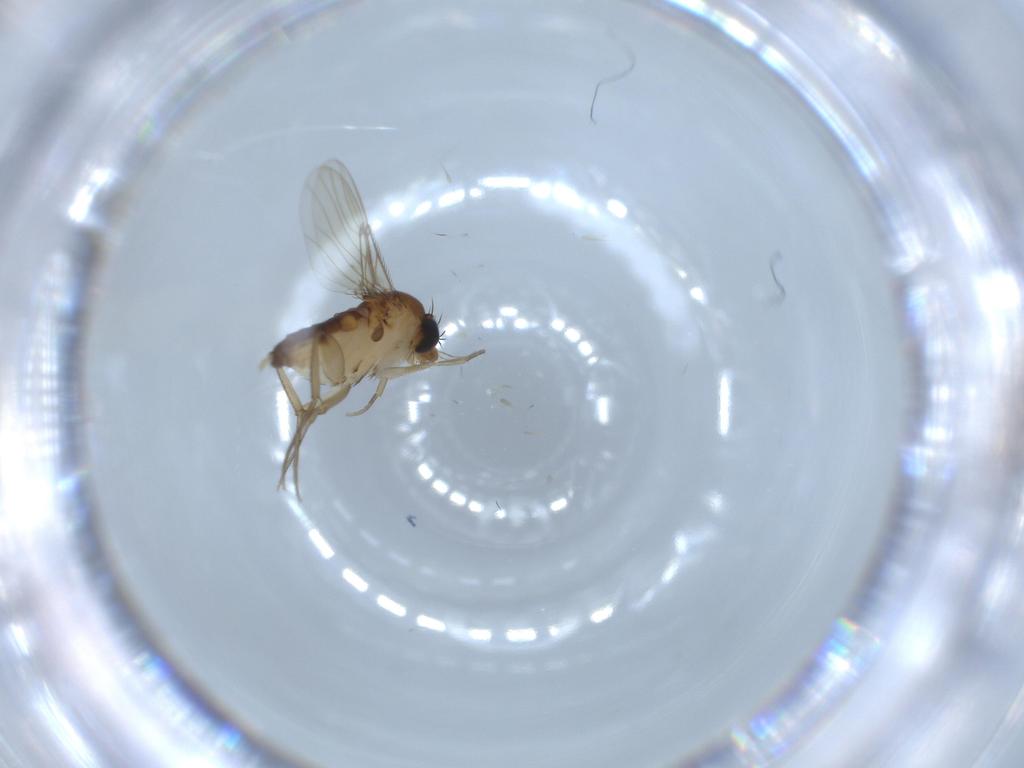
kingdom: Animalia
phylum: Arthropoda
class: Insecta
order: Diptera
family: Phoridae
